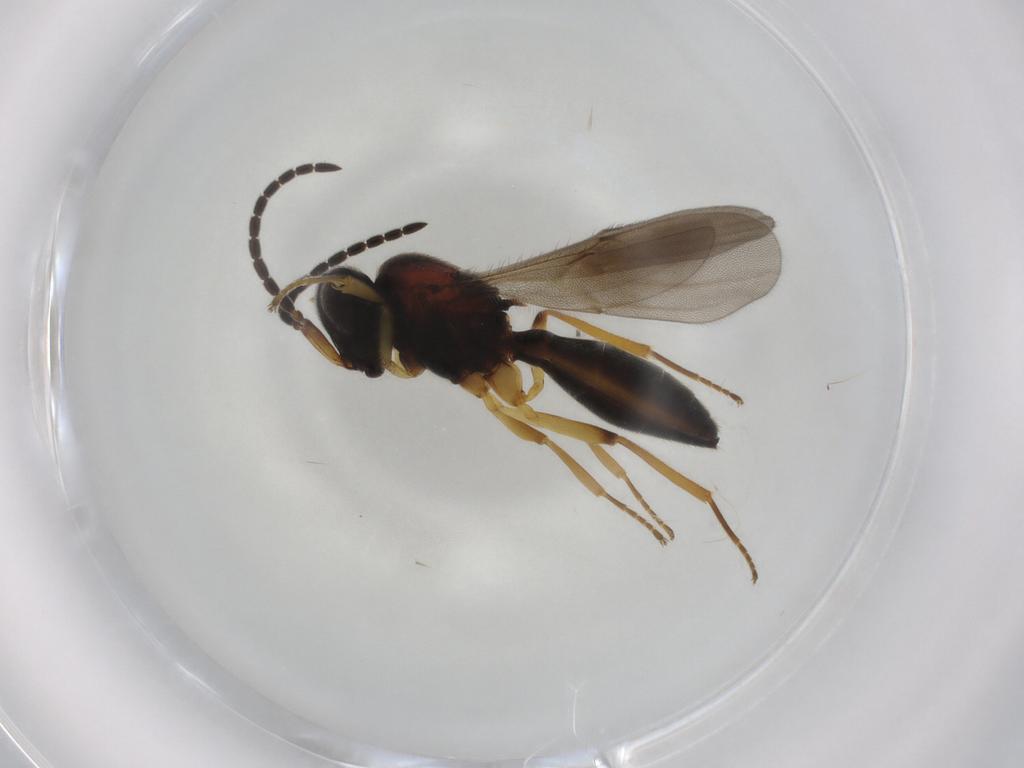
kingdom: Animalia
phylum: Arthropoda
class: Insecta
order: Hymenoptera
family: Scelionidae
